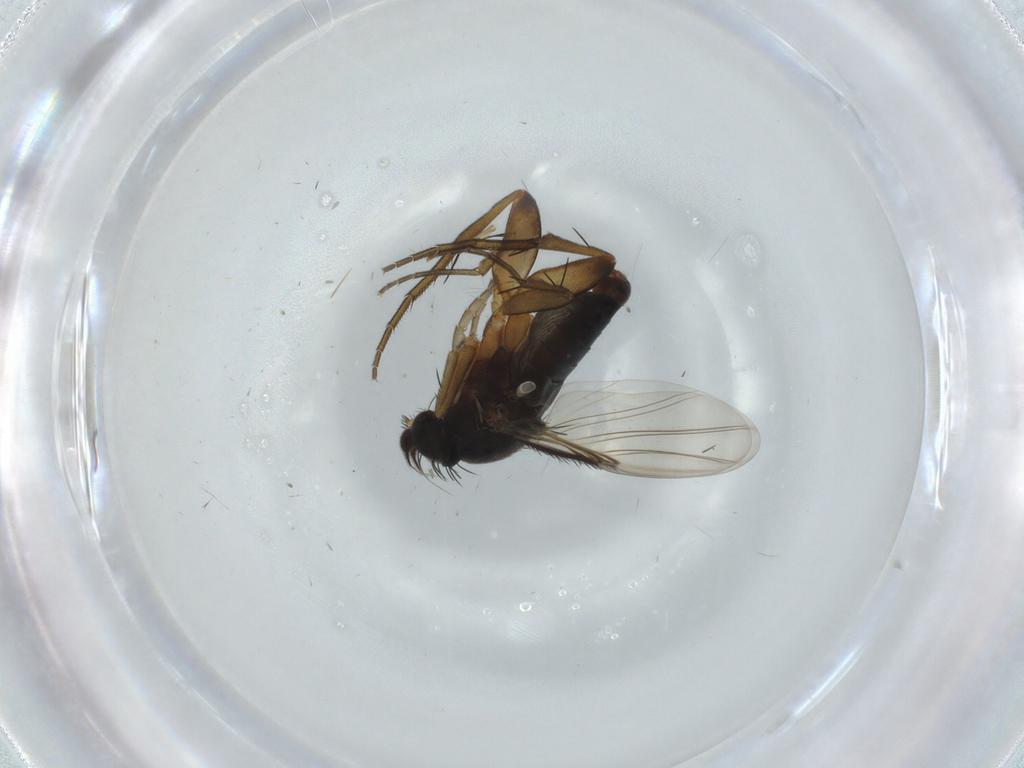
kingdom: Animalia
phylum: Arthropoda
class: Insecta
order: Diptera
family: Phoridae
